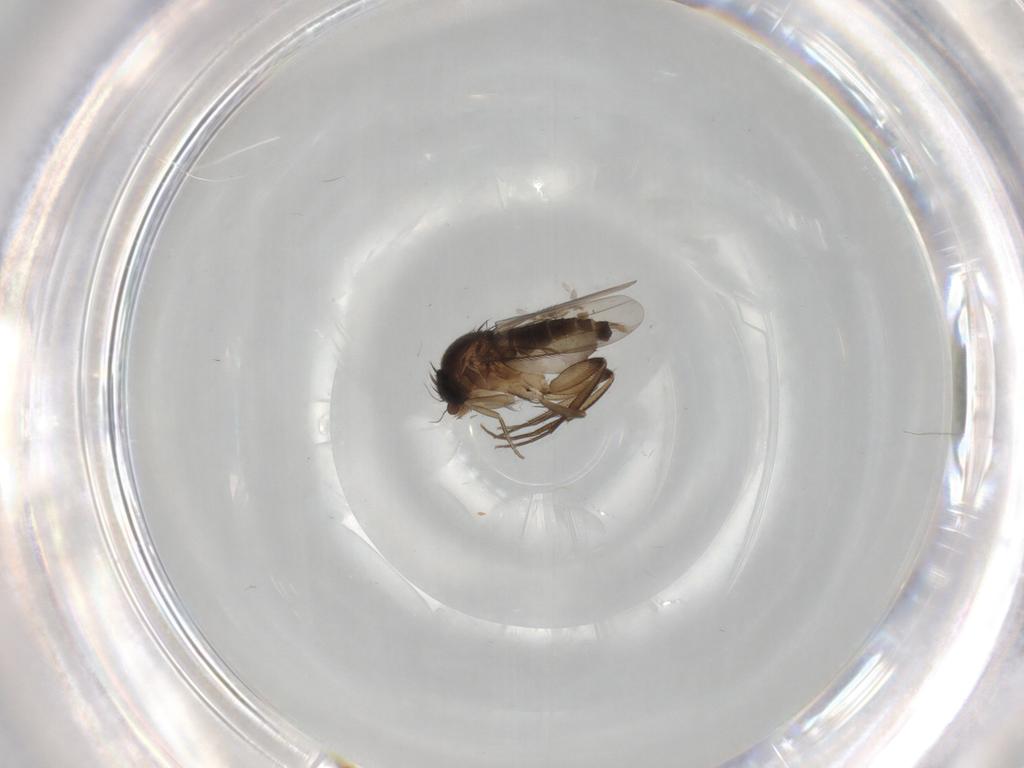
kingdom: Animalia
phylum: Arthropoda
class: Insecta
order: Diptera
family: Phoridae
